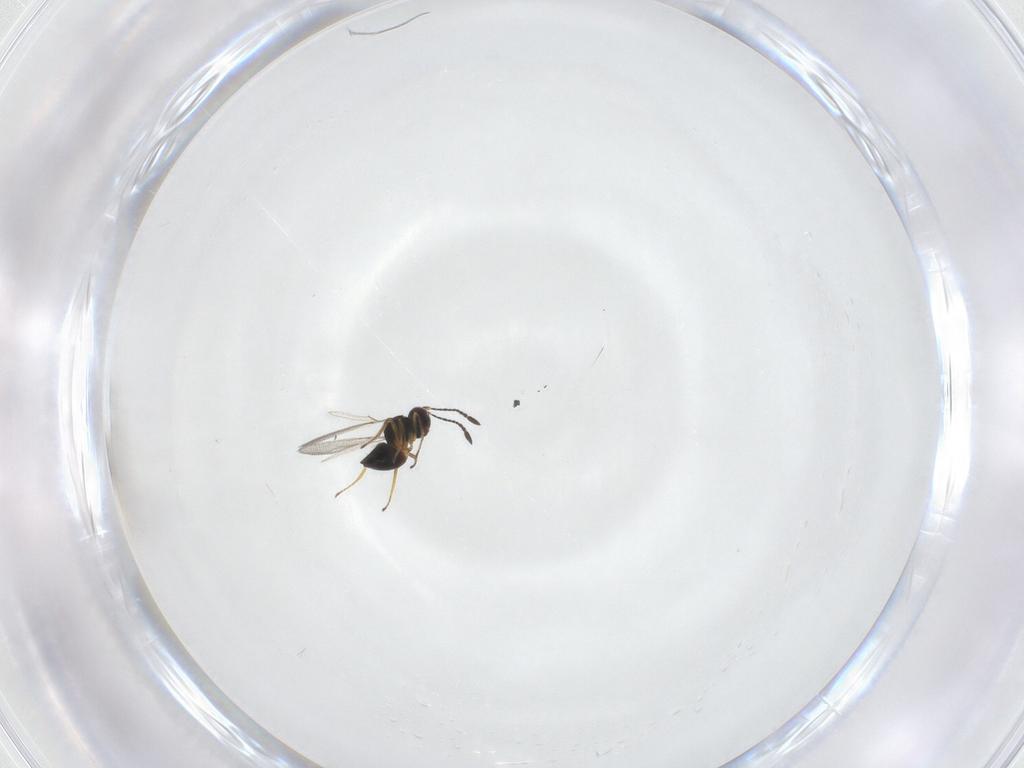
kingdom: Animalia
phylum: Arthropoda
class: Insecta
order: Hymenoptera
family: Mymaridae
